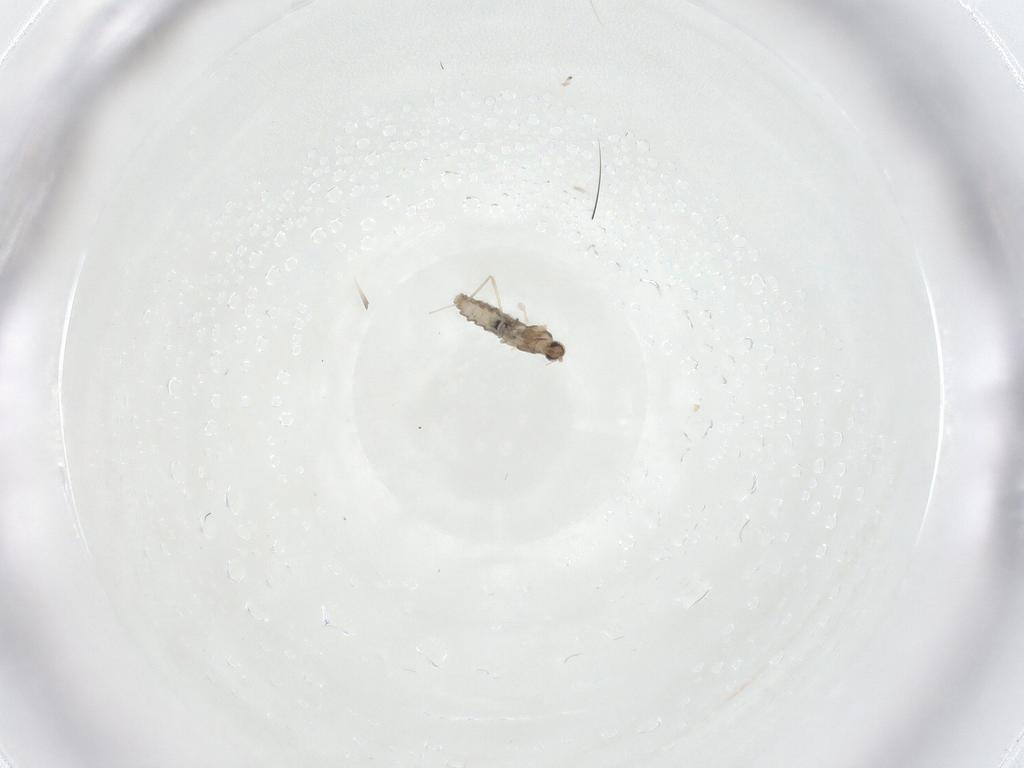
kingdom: Animalia
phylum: Arthropoda
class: Insecta
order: Diptera
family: Cecidomyiidae
